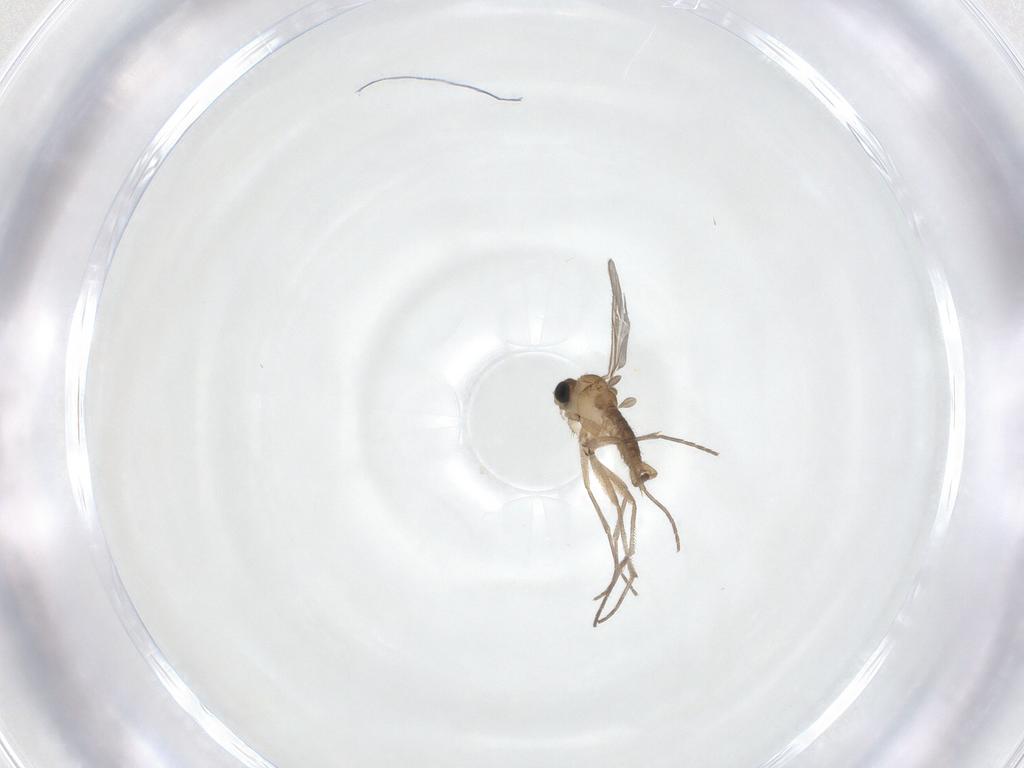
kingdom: Animalia
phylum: Arthropoda
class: Insecta
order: Diptera
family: Sciaridae
